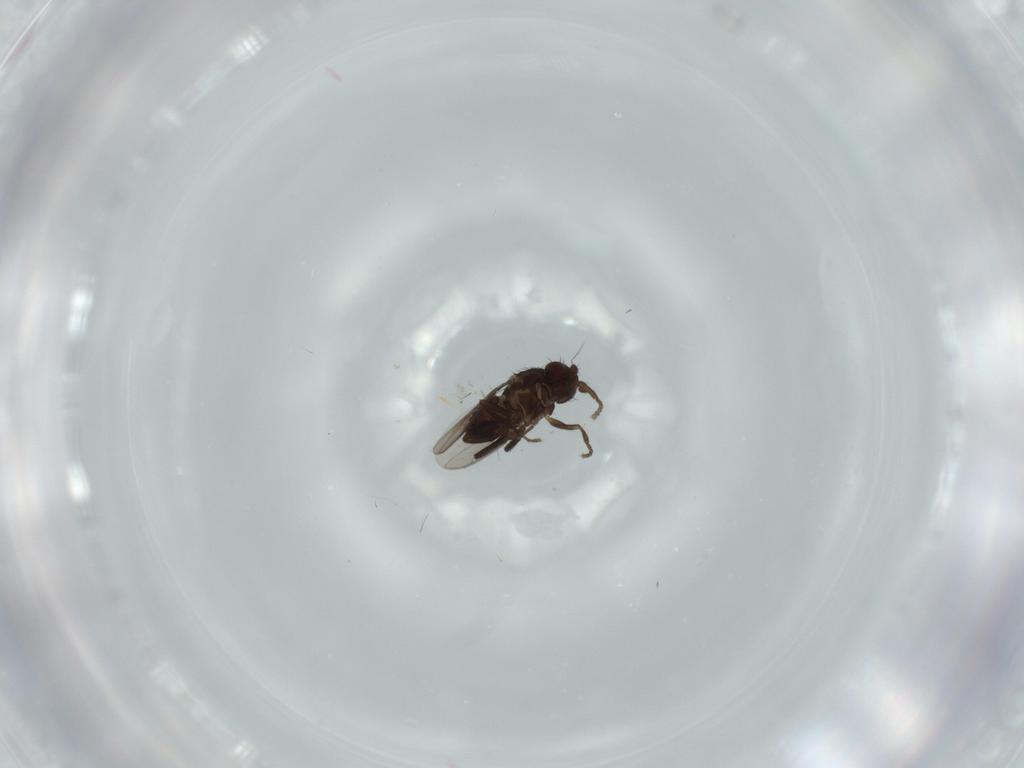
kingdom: Animalia
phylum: Arthropoda
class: Insecta
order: Diptera
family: Sphaeroceridae
